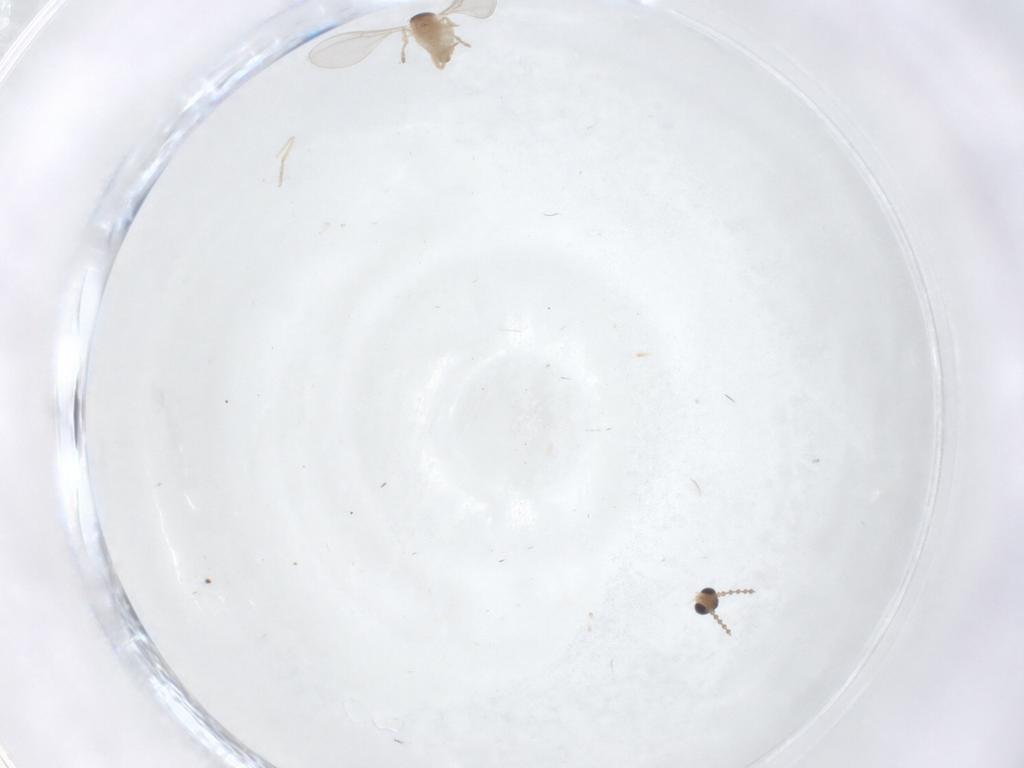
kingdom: Animalia
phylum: Arthropoda
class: Insecta
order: Diptera
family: Cecidomyiidae
